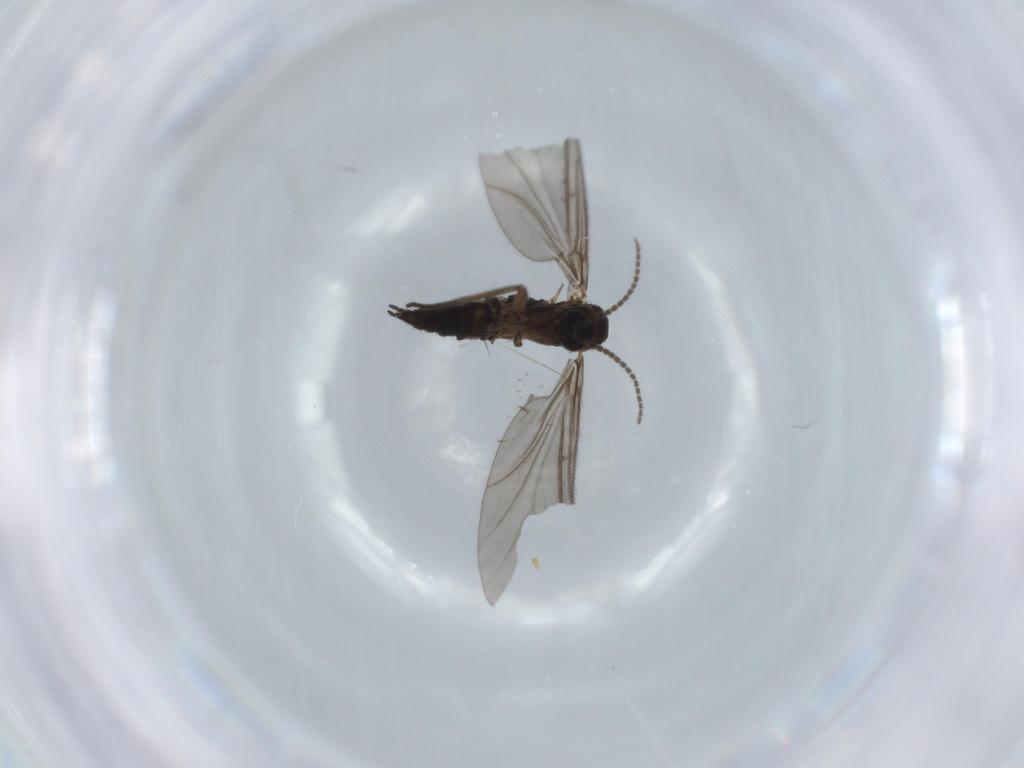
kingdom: Animalia
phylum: Arthropoda
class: Insecta
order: Diptera
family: Sciaridae
